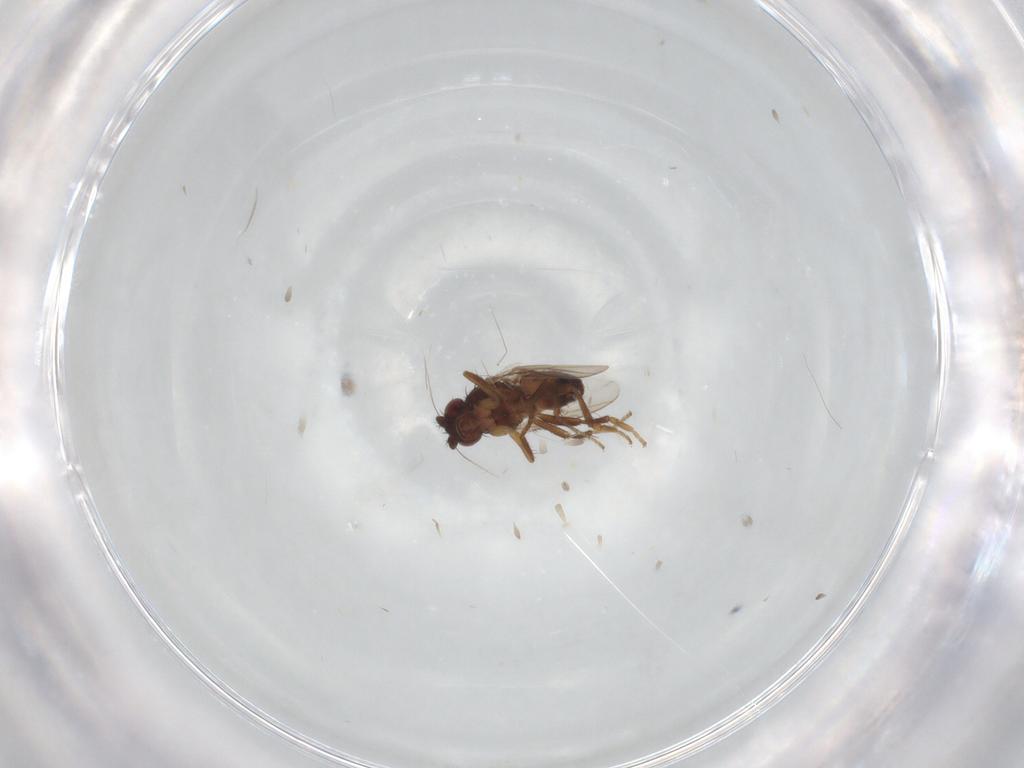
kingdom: Animalia
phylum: Arthropoda
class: Insecta
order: Diptera
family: Sphaeroceridae
